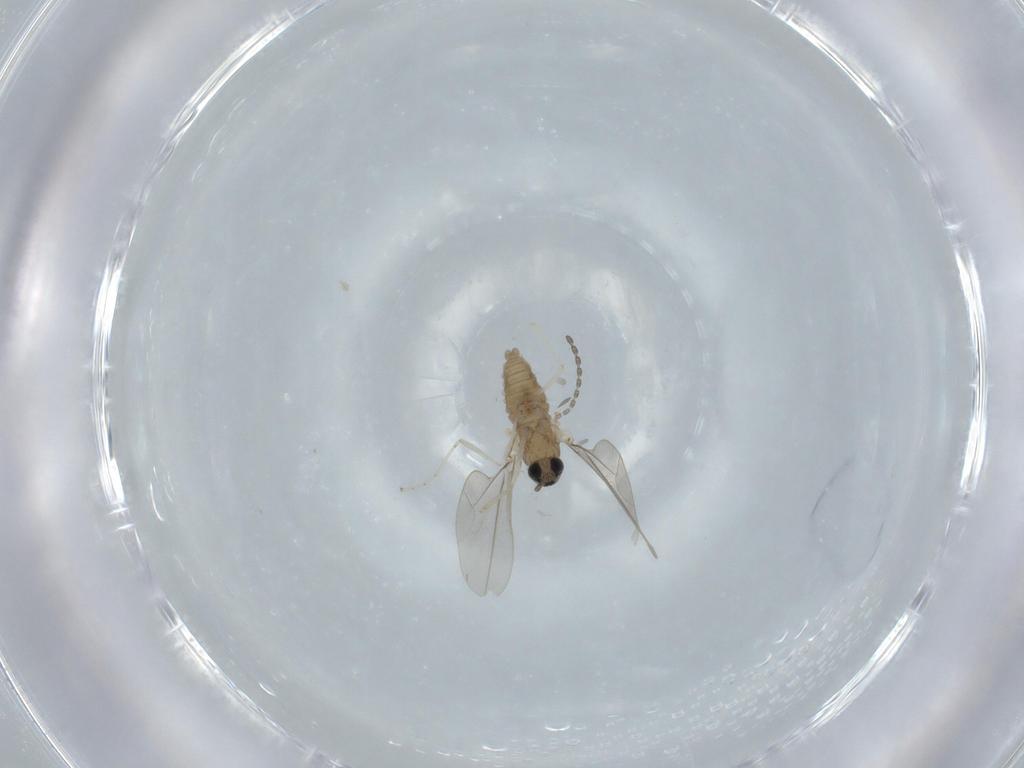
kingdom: Animalia
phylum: Arthropoda
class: Insecta
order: Diptera
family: Cecidomyiidae
